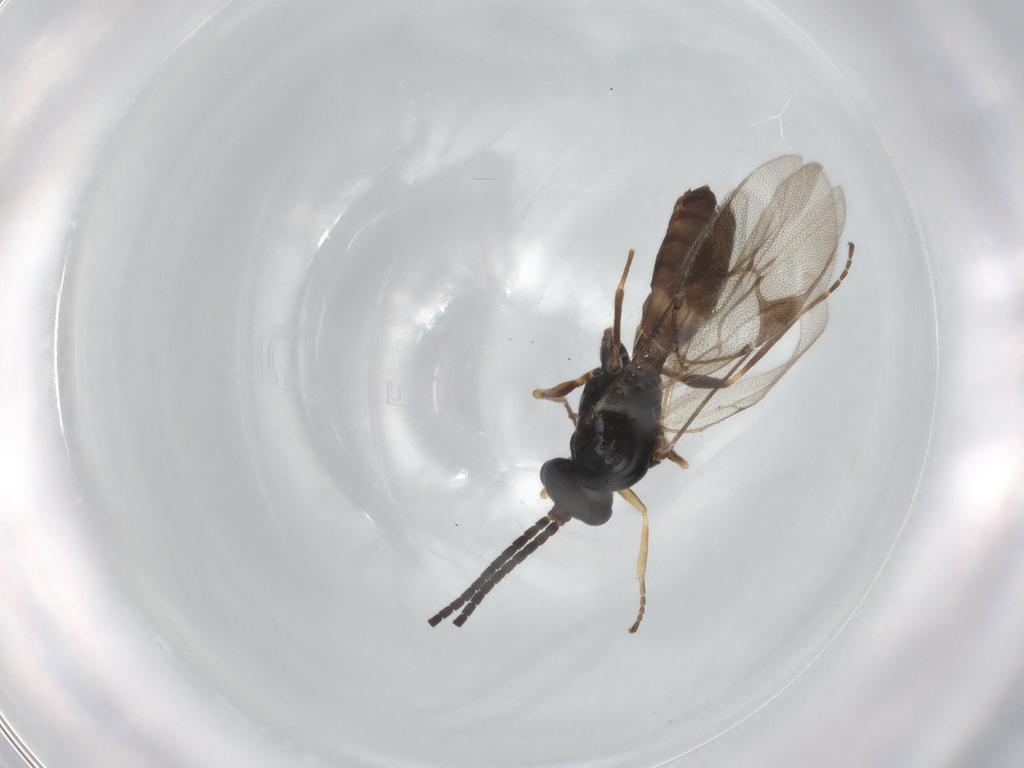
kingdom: Animalia
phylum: Arthropoda
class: Insecta
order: Hymenoptera
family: Braconidae
